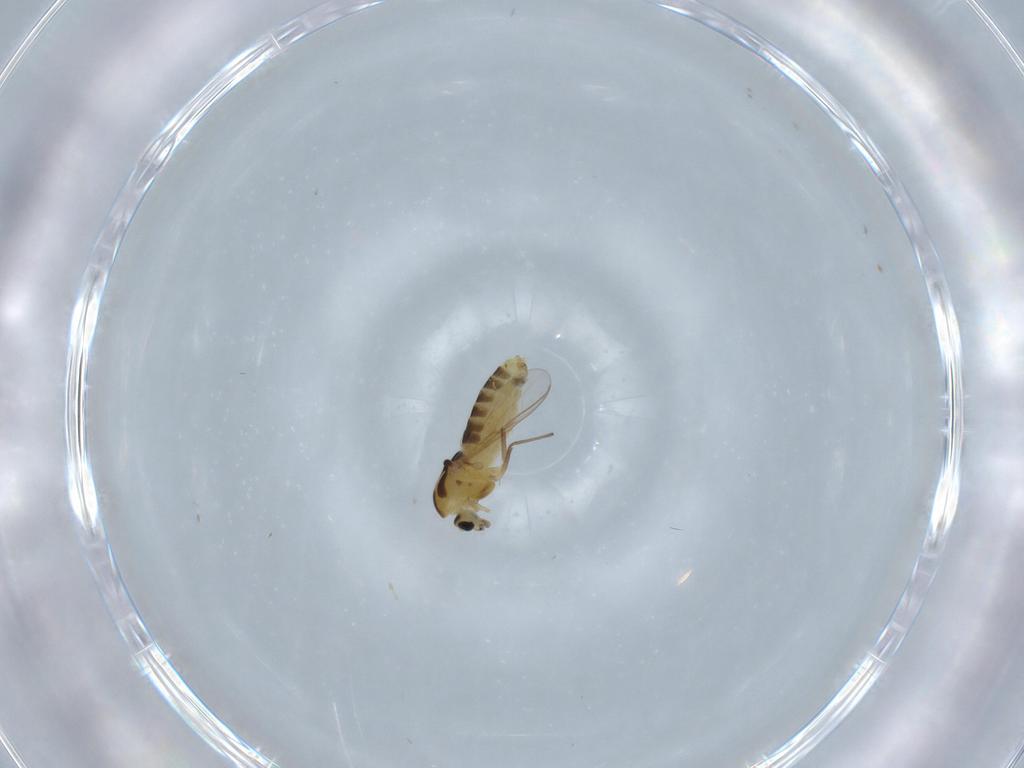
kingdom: Animalia
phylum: Arthropoda
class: Insecta
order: Diptera
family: Chironomidae
